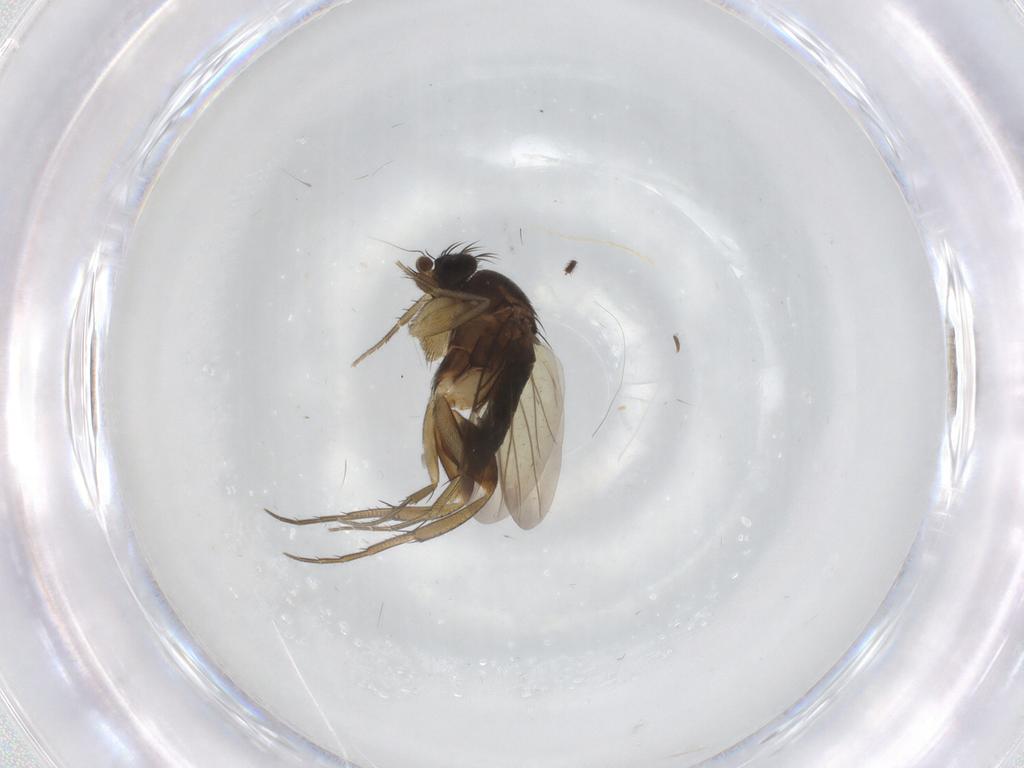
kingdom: Animalia
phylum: Arthropoda
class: Insecta
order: Diptera
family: Phoridae
